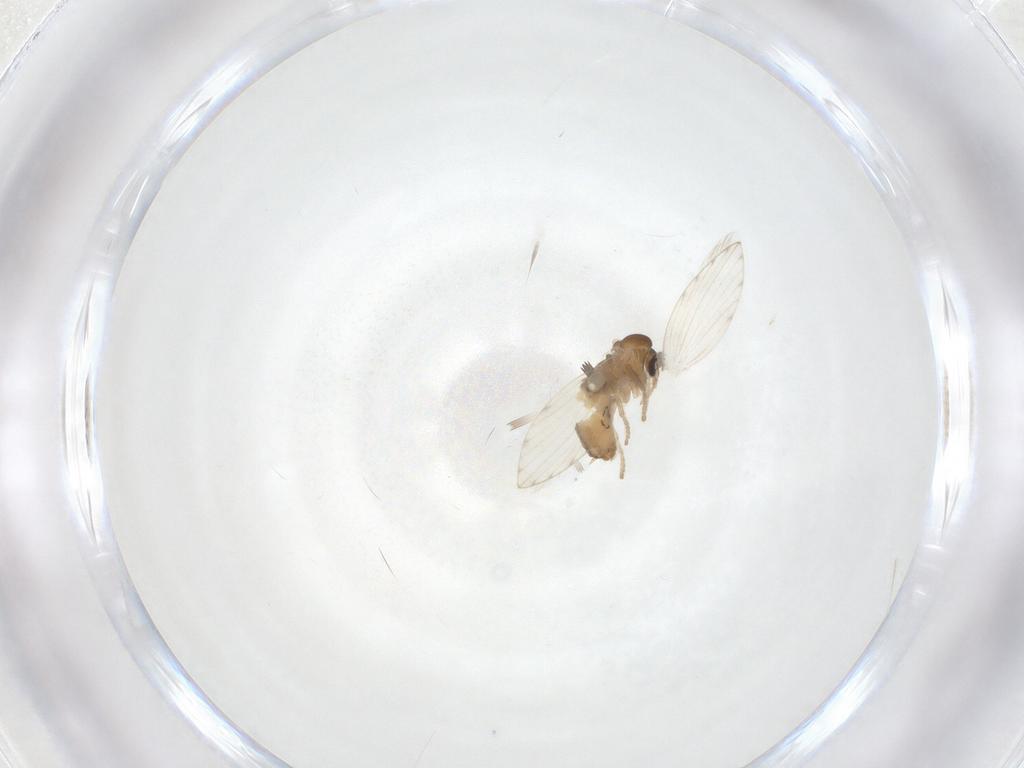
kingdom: Animalia
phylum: Arthropoda
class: Insecta
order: Diptera
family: Psychodidae
